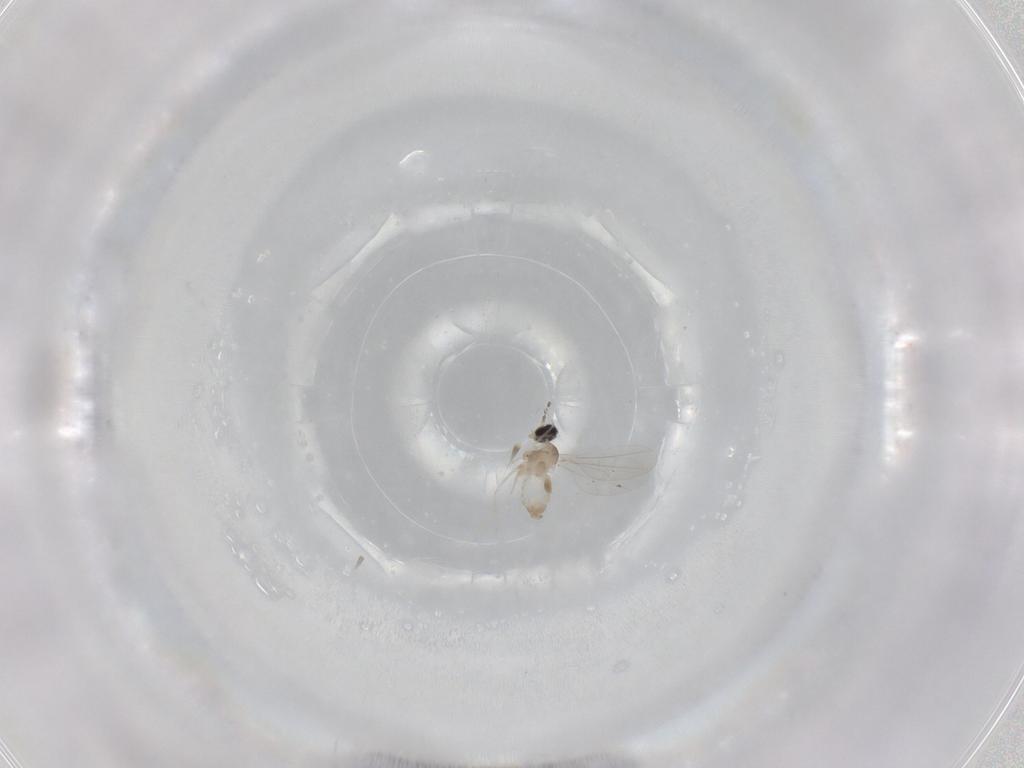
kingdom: Animalia
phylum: Arthropoda
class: Insecta
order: Diptera
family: Cecidomyiidae
